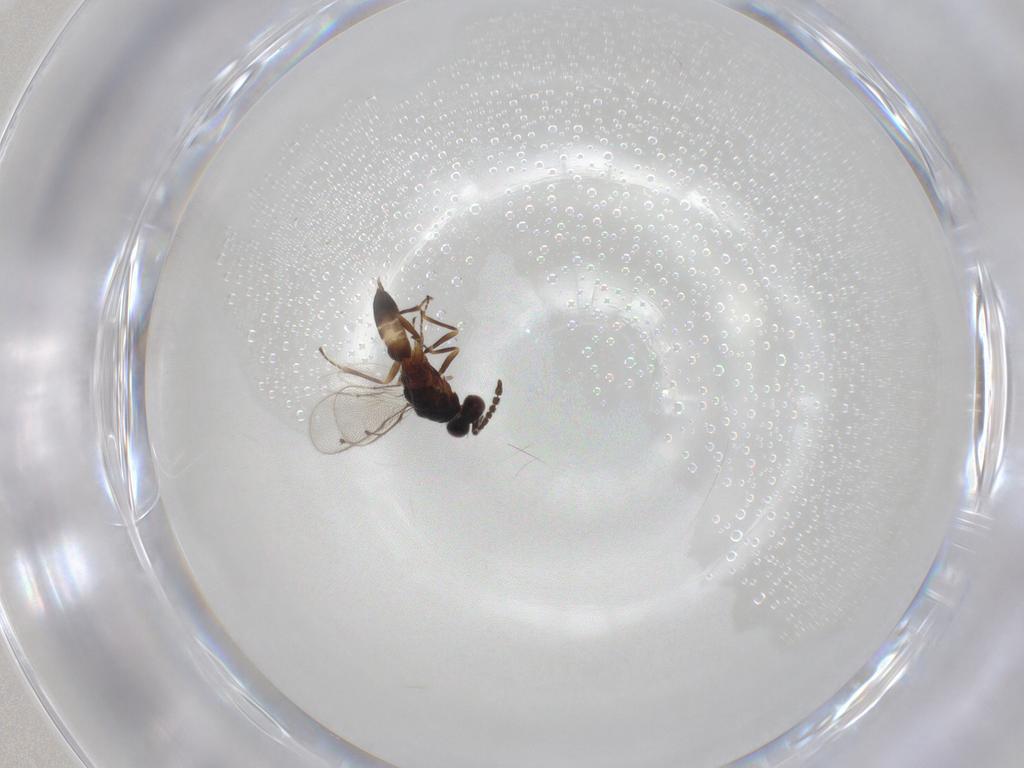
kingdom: Animalia
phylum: Arthropoda
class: Insecta
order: Hymenoptera
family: Eulophidae
